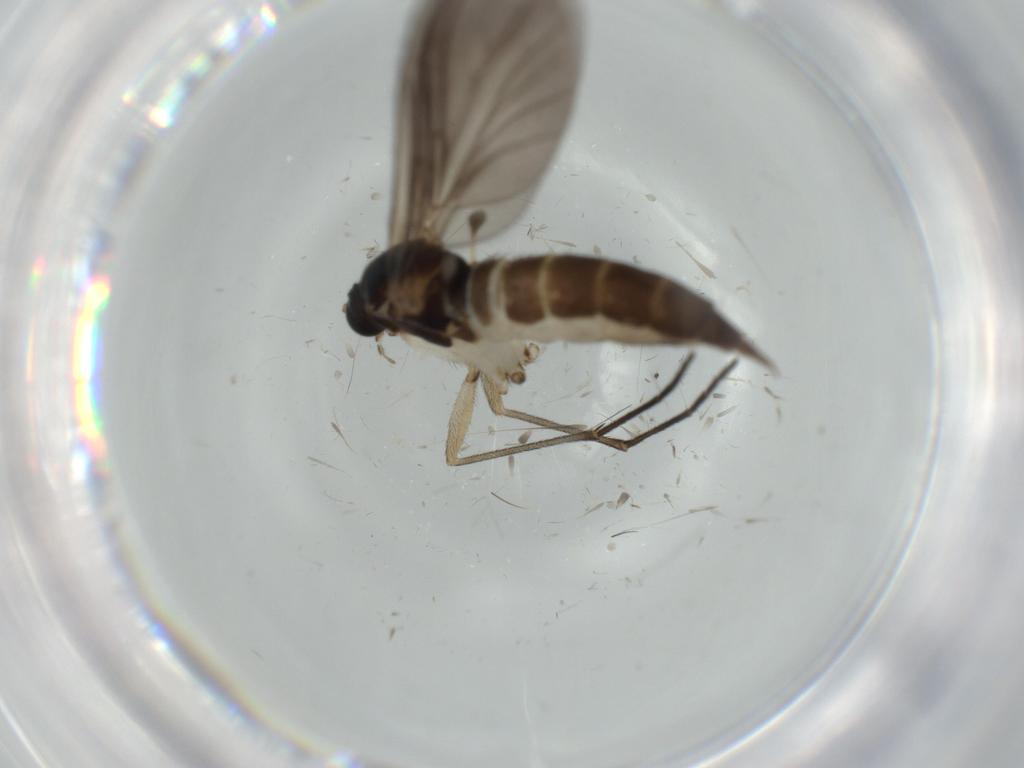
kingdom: Animalia
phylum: Arthropoda
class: Insecta
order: Diptera
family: Sciaridae
